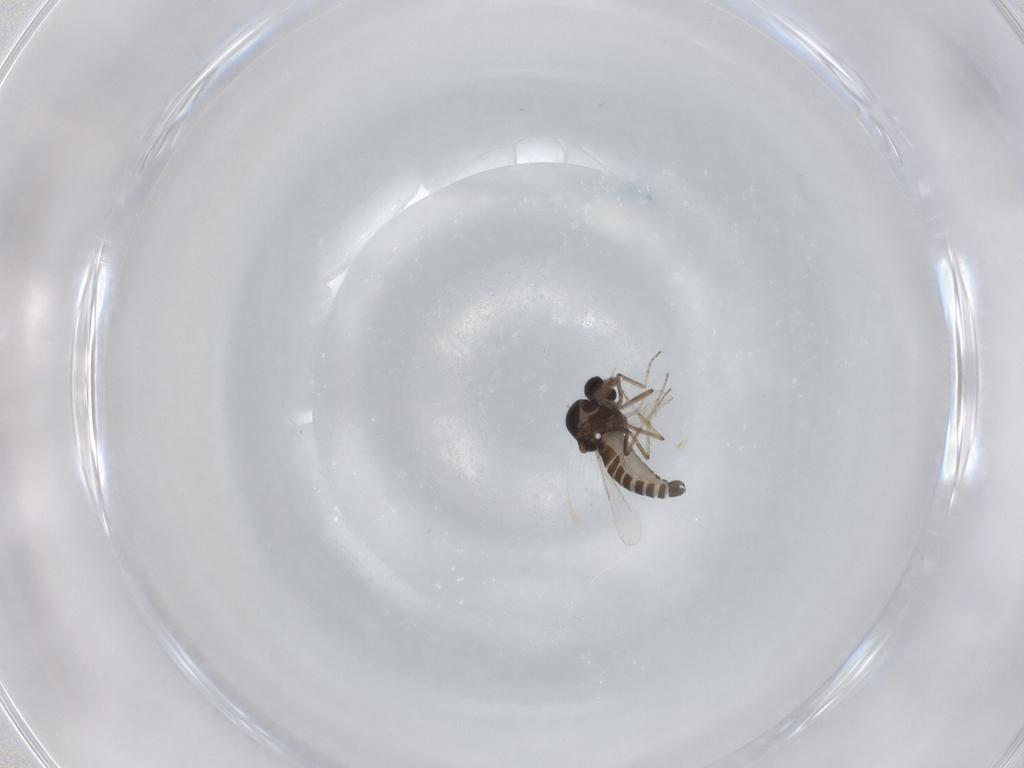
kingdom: Animalia
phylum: Arthropoda
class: Insecta
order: Diptera
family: Ceratopogonidae
